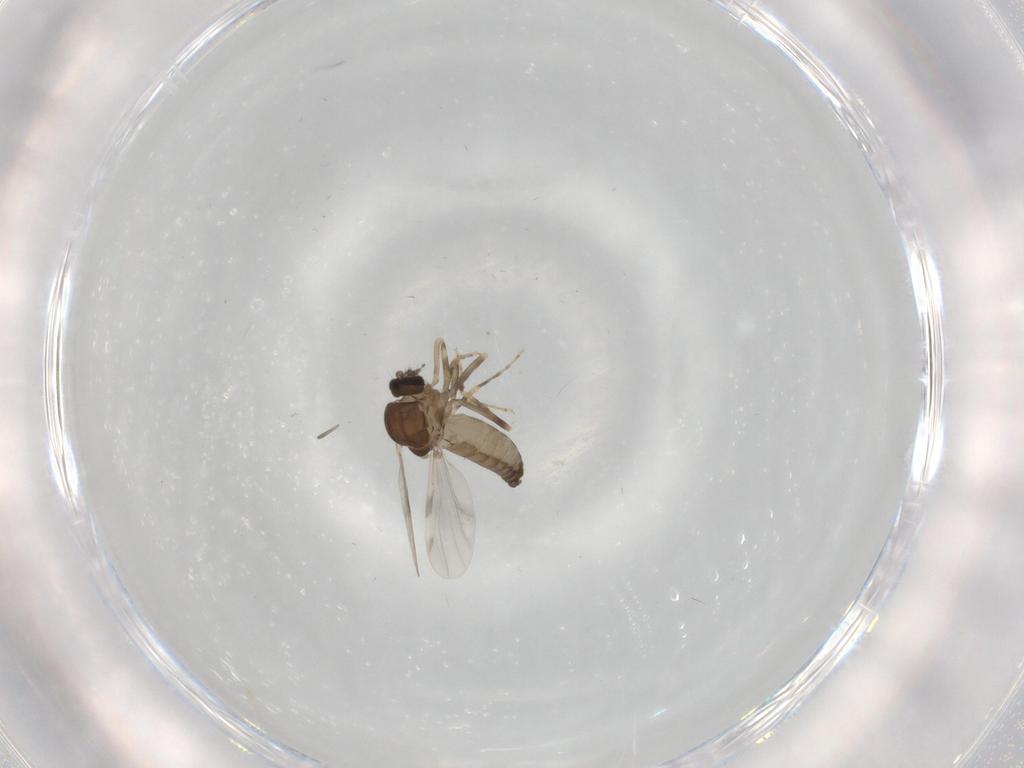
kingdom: Animalia
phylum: Arthropoda
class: Insecta
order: Diptera
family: Ceratopogonidae
